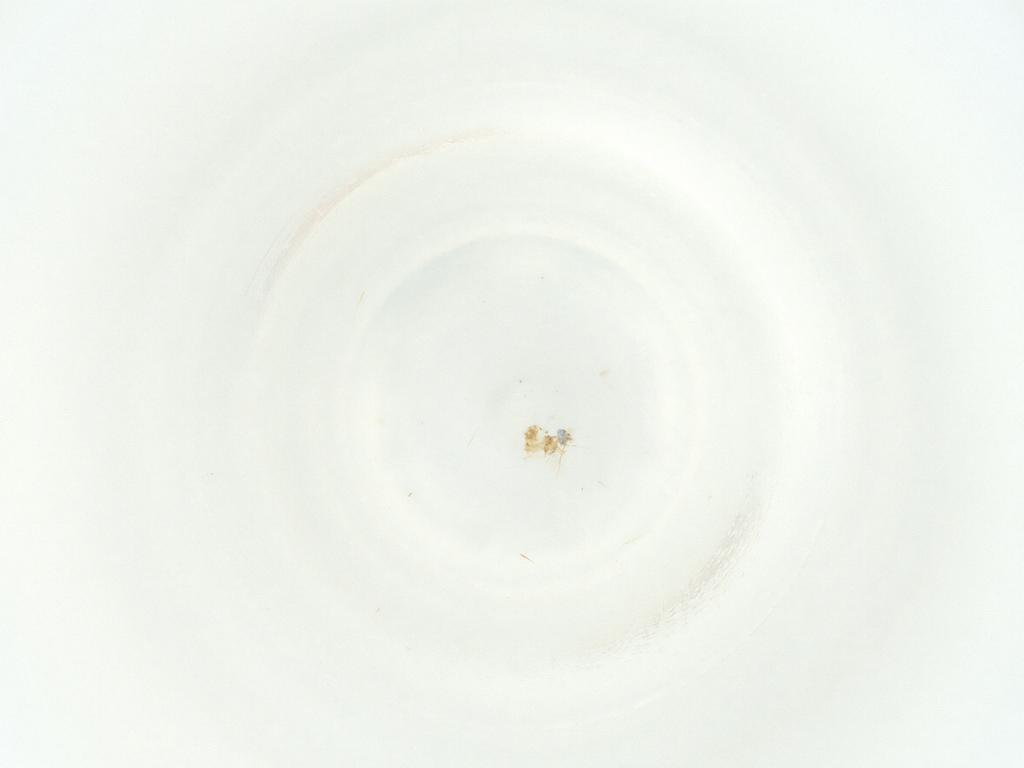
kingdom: Animalia
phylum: Arthropoda
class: Insecta
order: Hymenoptera
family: Mymaridae
